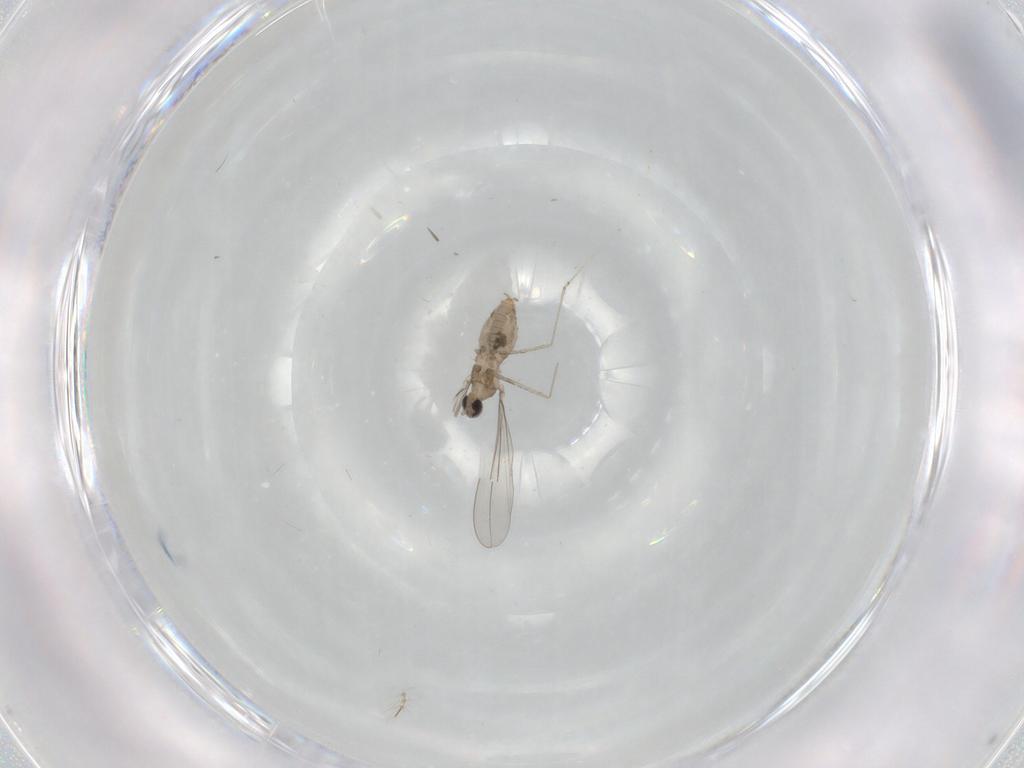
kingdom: Animalia
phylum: Arthropoda
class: Insecta
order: Diptera
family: Cecidomyiidae
